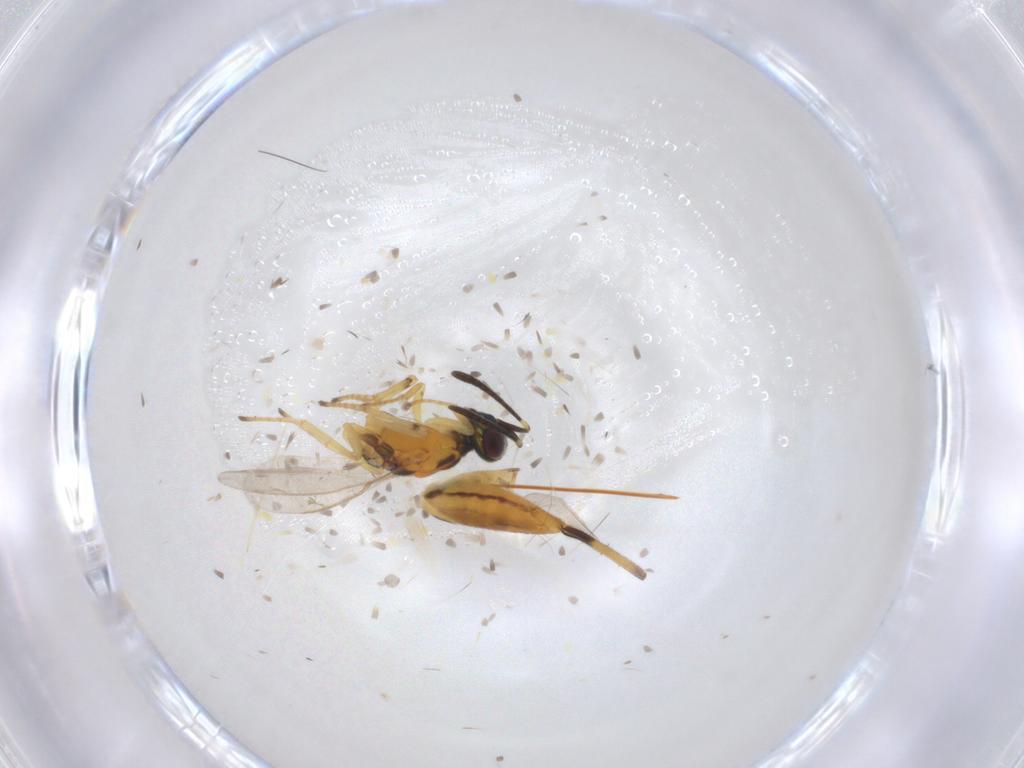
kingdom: Animalia
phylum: Arthropoda
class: Insecta
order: Hymenoptera
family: Eupelmidae
